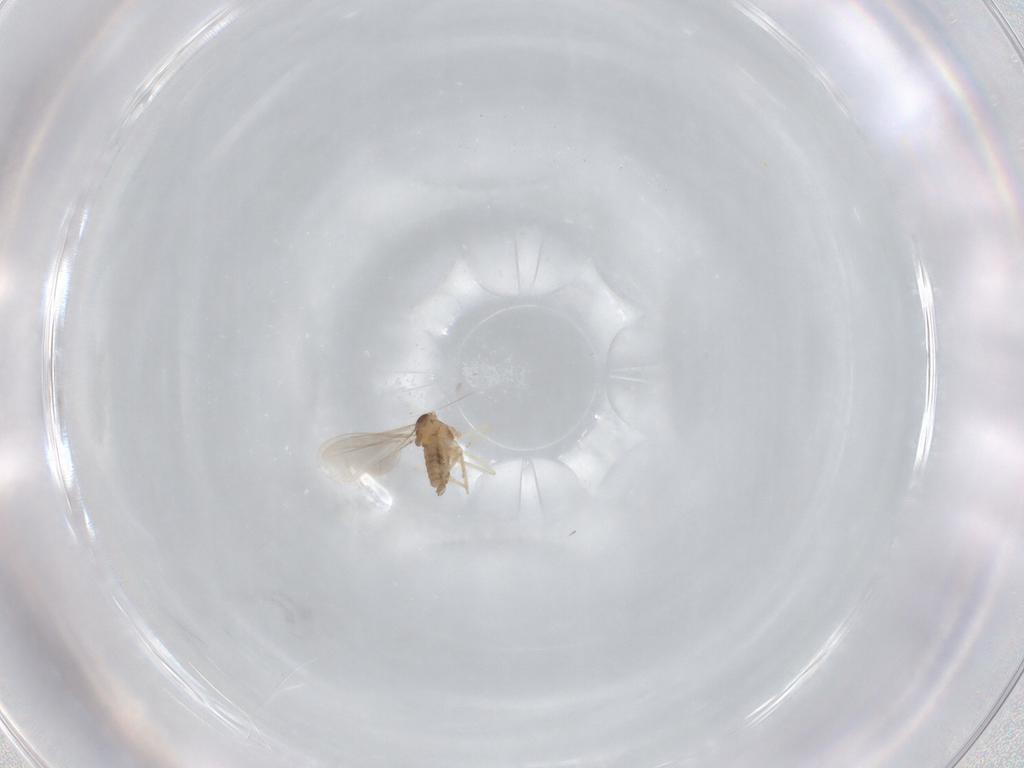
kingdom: Animalia
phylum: Arthropoda
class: Insecta
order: Diptera
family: Cecidomyiidae
